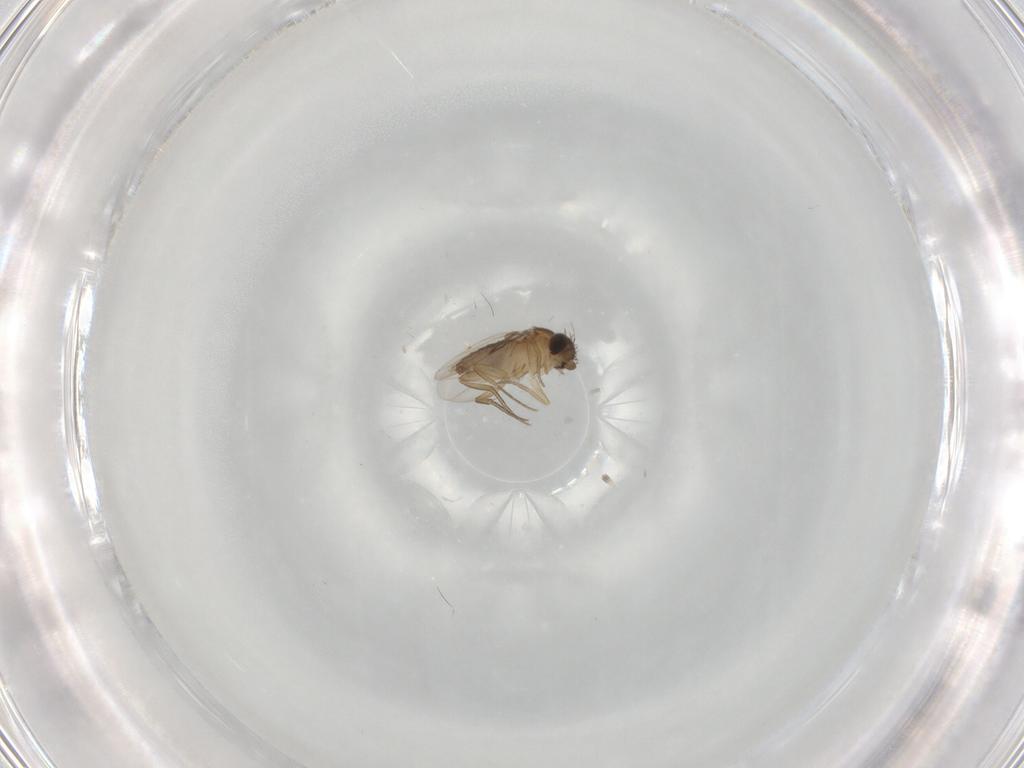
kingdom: Animalia
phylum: Arthropoda
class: Insecta
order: Diptera
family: Phoridae
